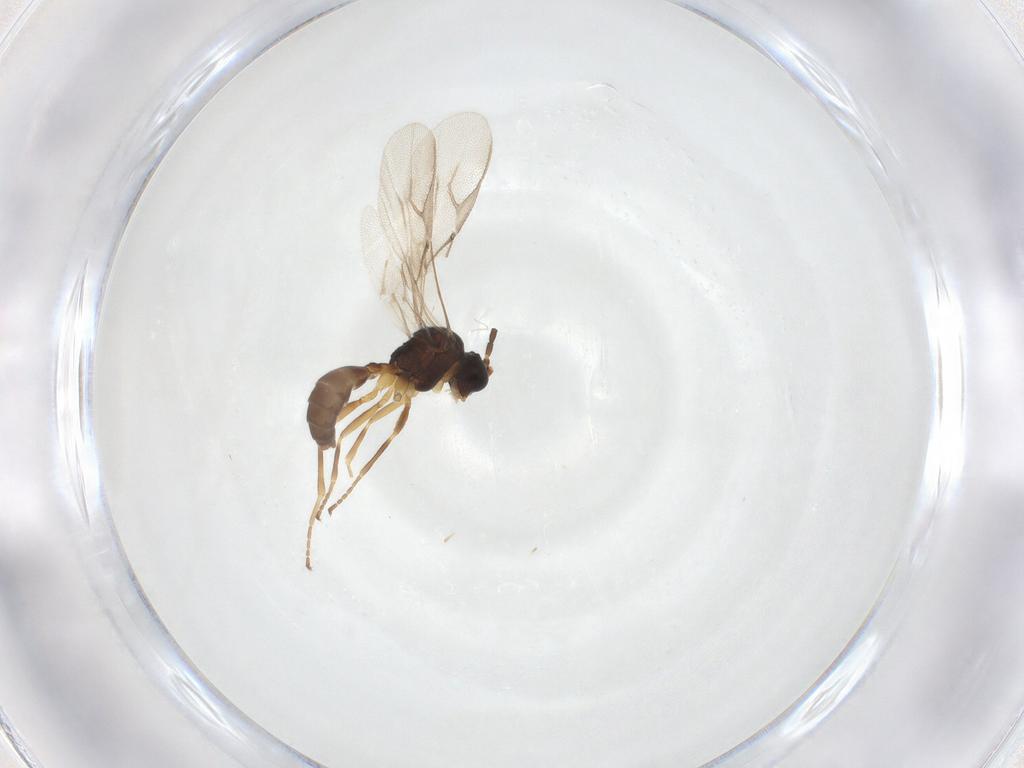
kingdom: Animalia
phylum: Arthropoda
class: Insecta
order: Hymenoptera
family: Braconidae
